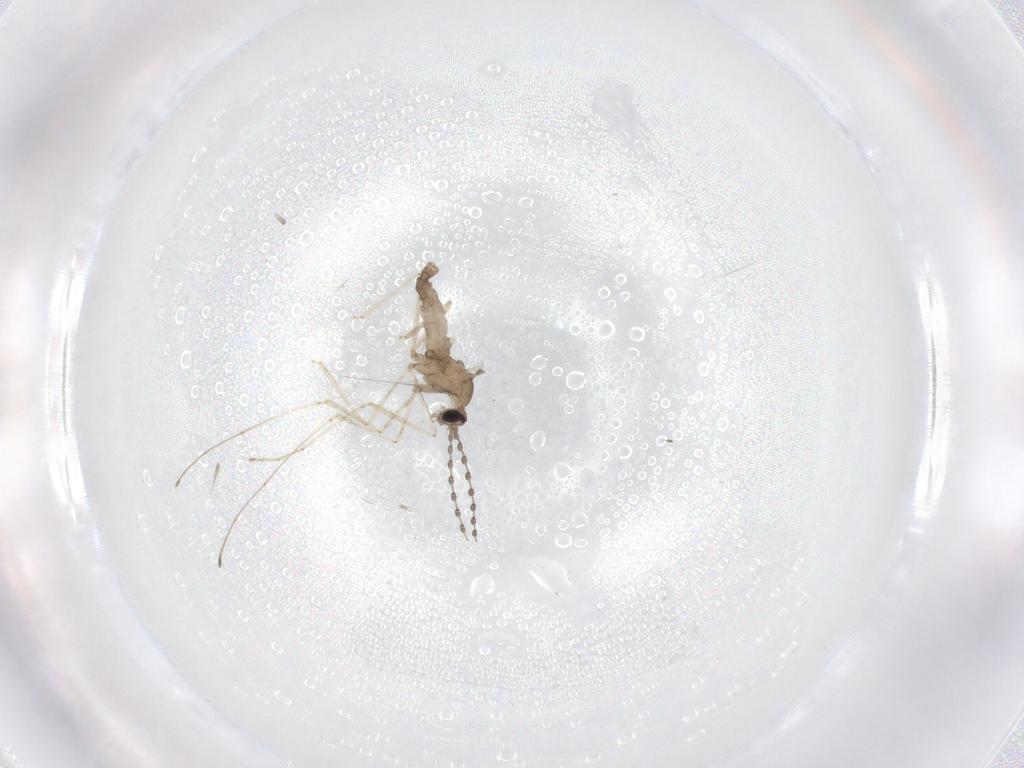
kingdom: Animalia
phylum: Arthropoda
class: Insecta
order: Diptera
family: Cecidomyiidae
